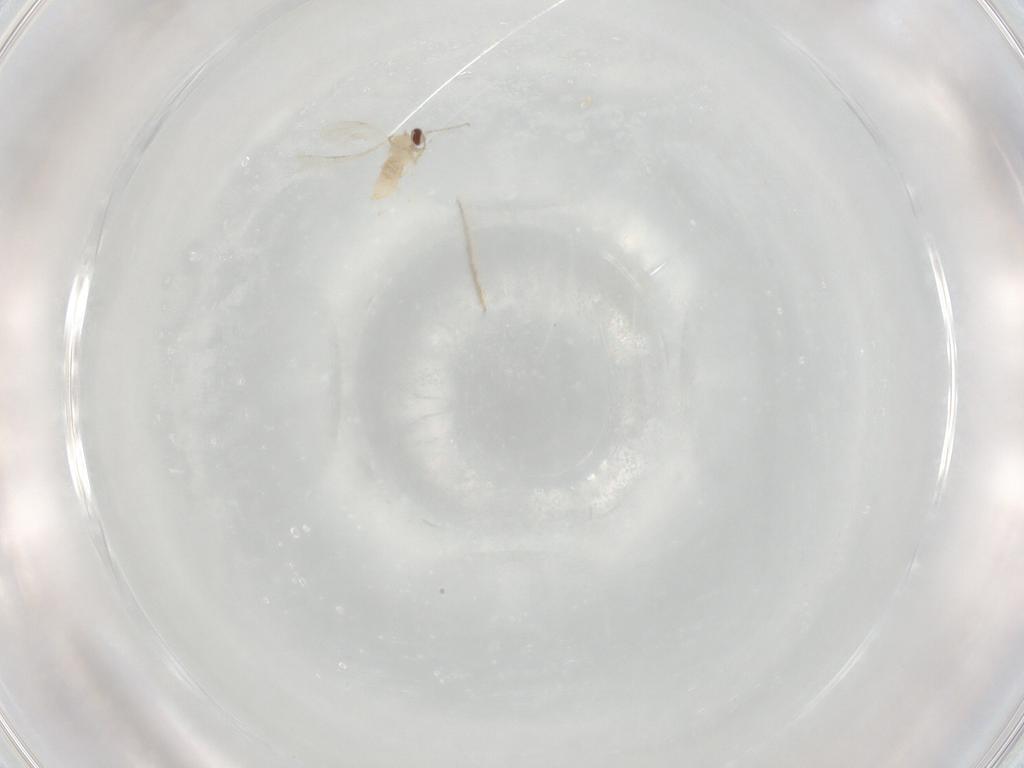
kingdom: Animalia
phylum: Arthropoda
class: Insecta
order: Diptera
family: Cecidomyiidae
